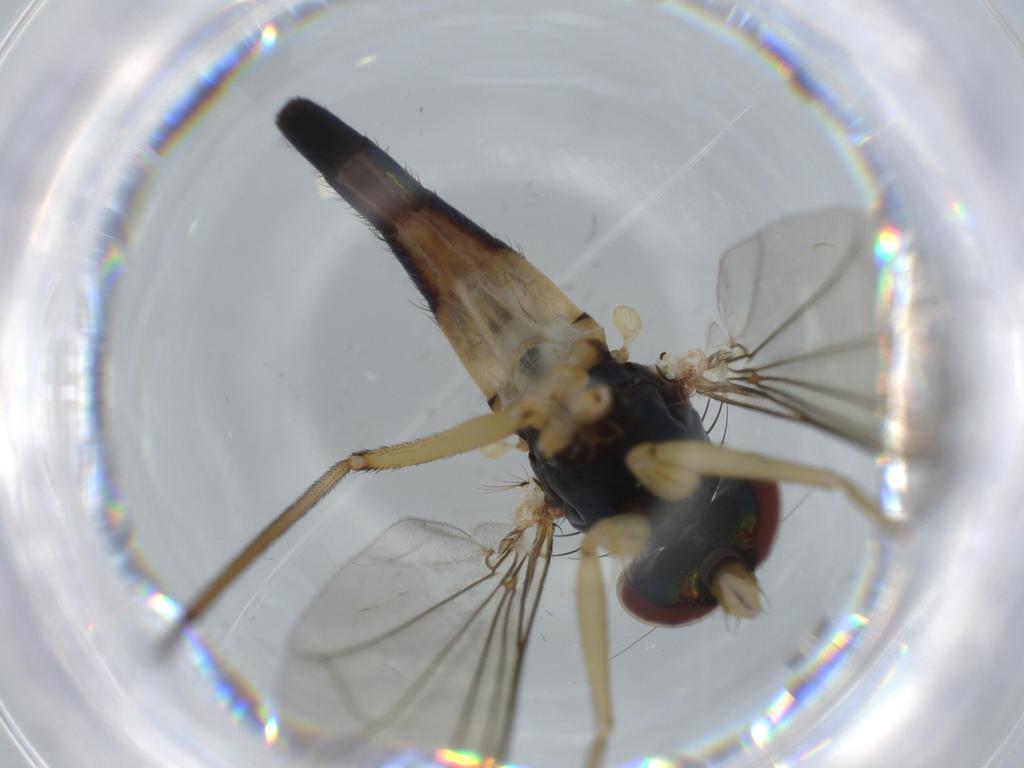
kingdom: Animalia
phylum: Arthropoda
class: Insecta
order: Diptera
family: Dolichopodidae
